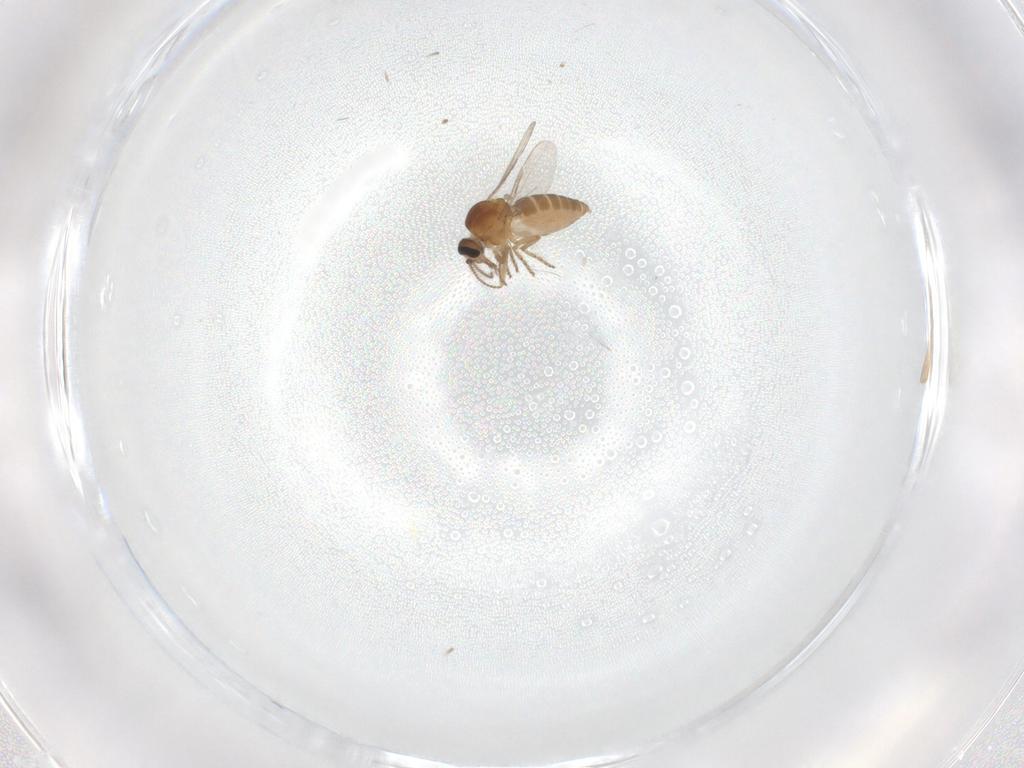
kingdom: Animalia
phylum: Arthropoda
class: Insecta
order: Diptera
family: Ceratopogonidae
